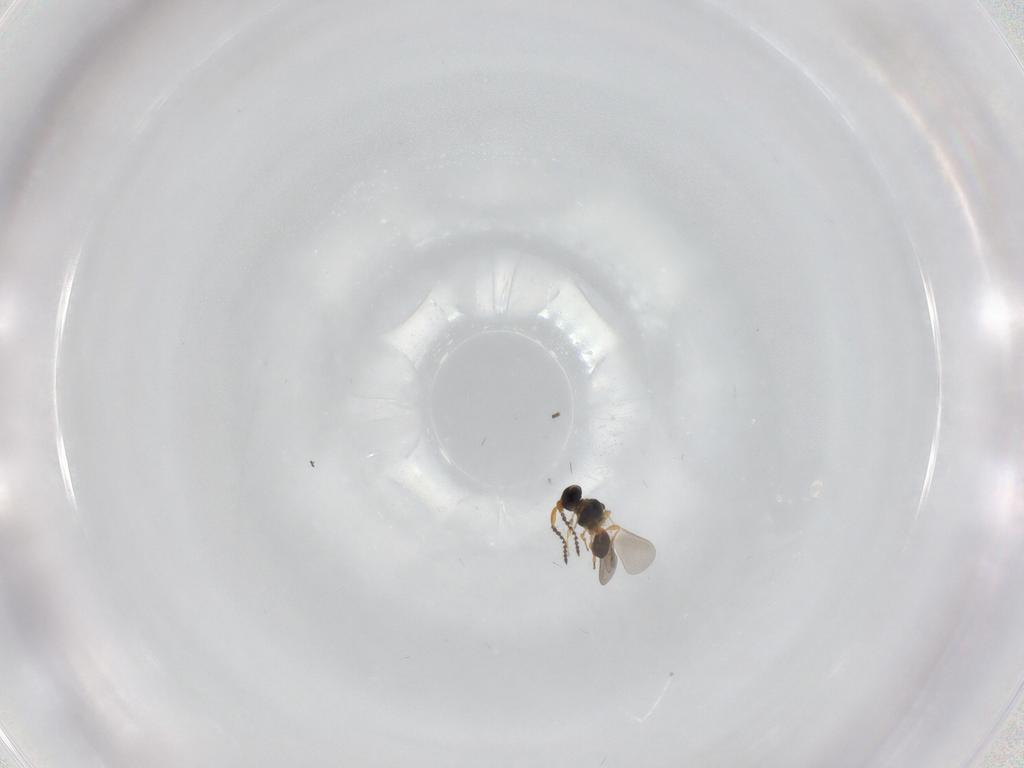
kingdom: Animalia
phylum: Arthropoda
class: Insecta
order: Hymenoptera
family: Platygastridae
